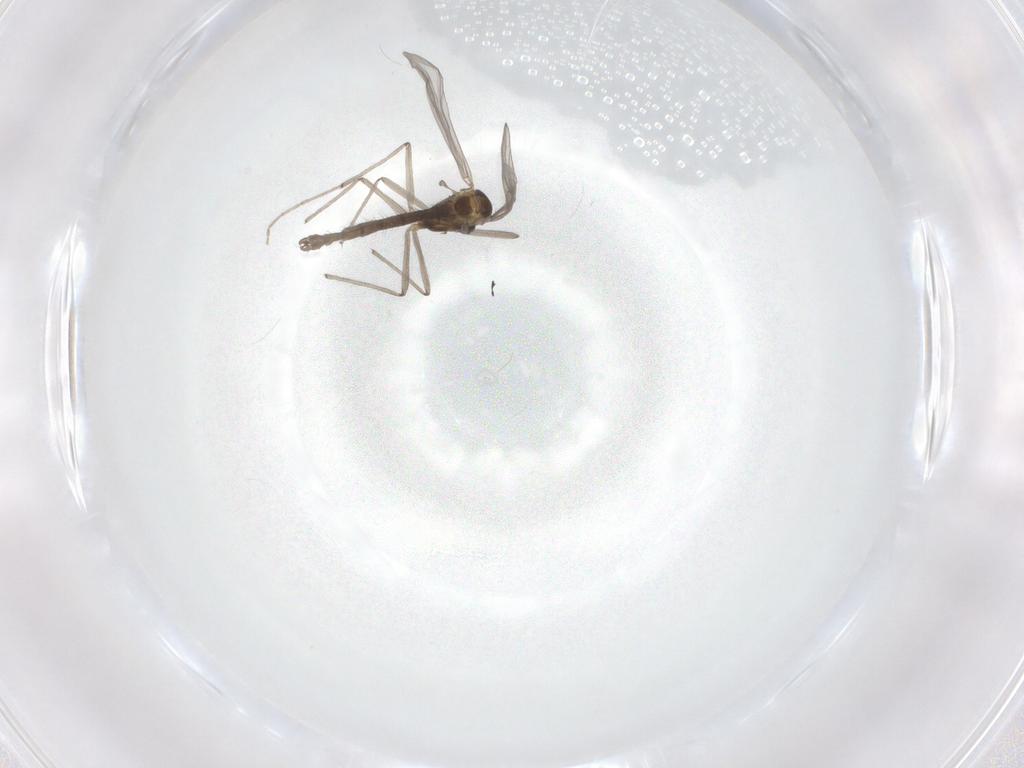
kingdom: Animalia
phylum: Arthropoda
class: Insecta
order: Diptera
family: Chironomidae
